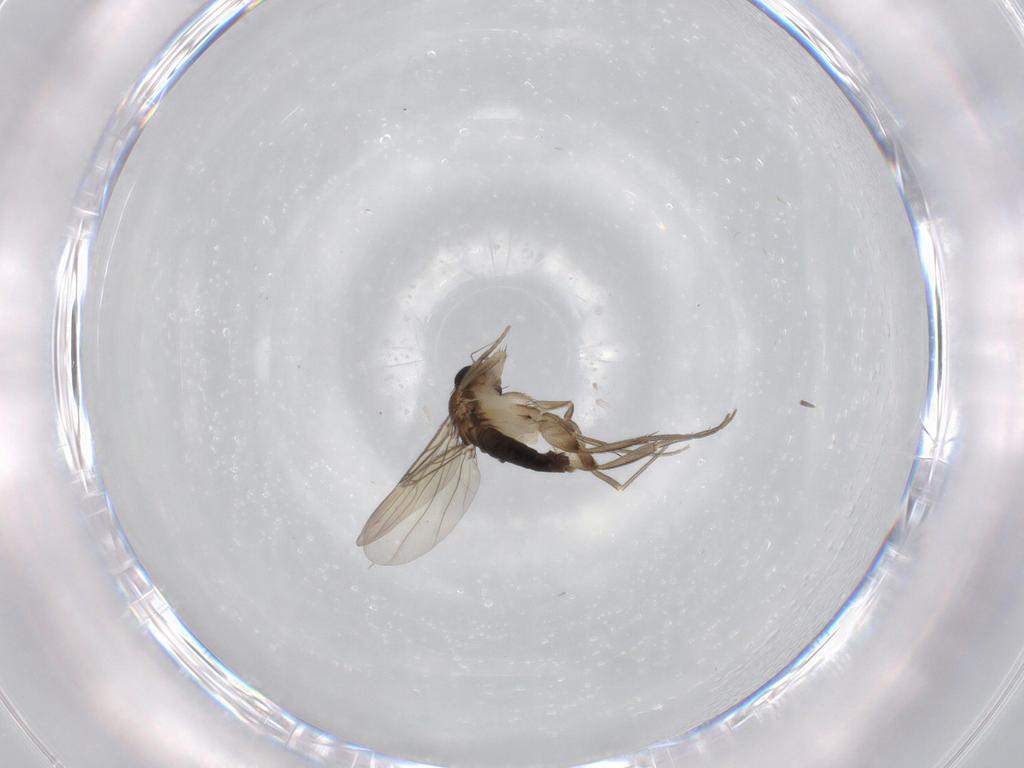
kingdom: Animalia
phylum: Arthropoda
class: Insecta
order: Diptera
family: Phoridae
